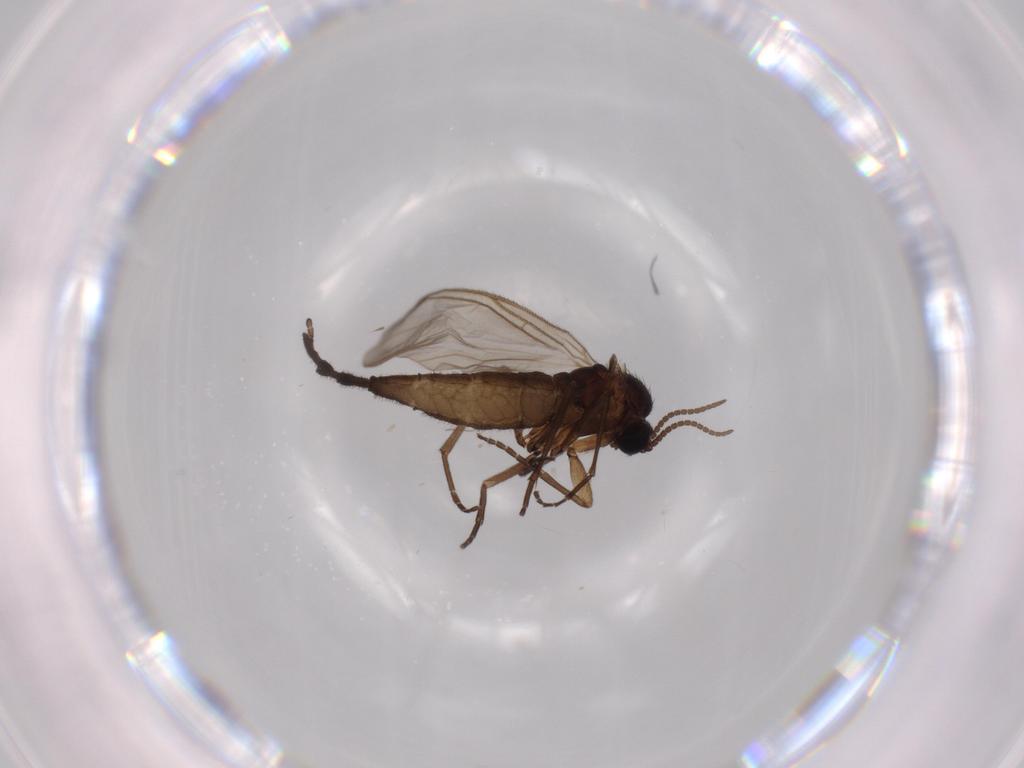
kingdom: Animalia
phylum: Arthropoda
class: Insecta
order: Diptera
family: Sciaridae
